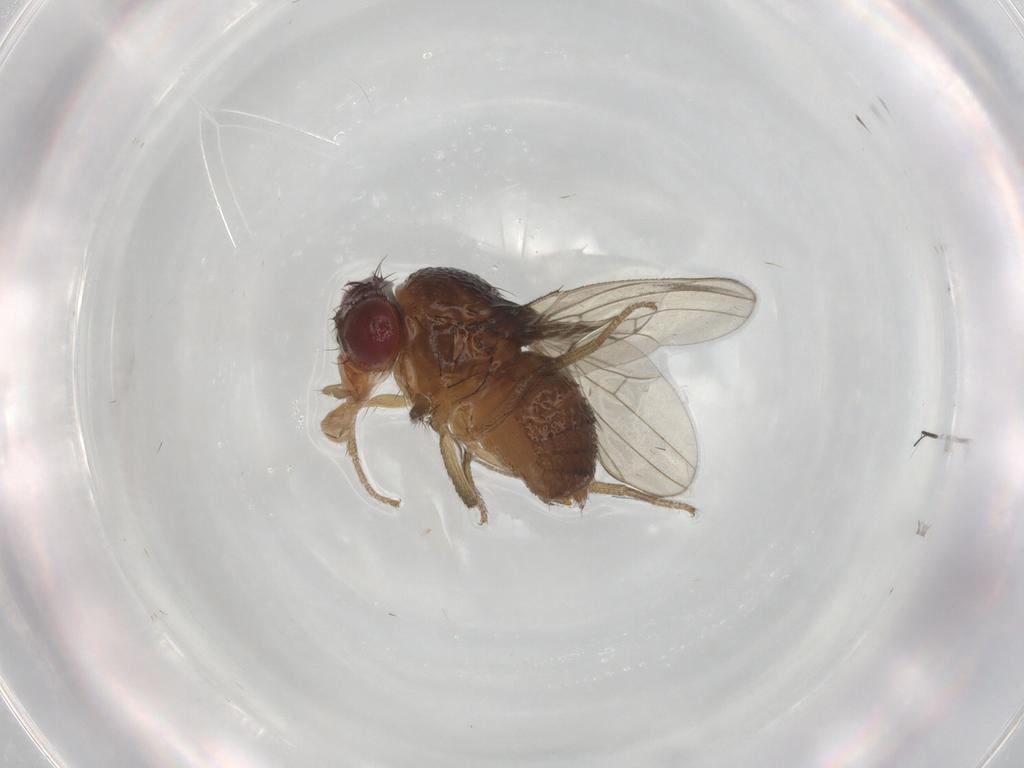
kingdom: Animalia
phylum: Arthropoda
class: Insecta
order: Diptera
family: Drosophilidae
